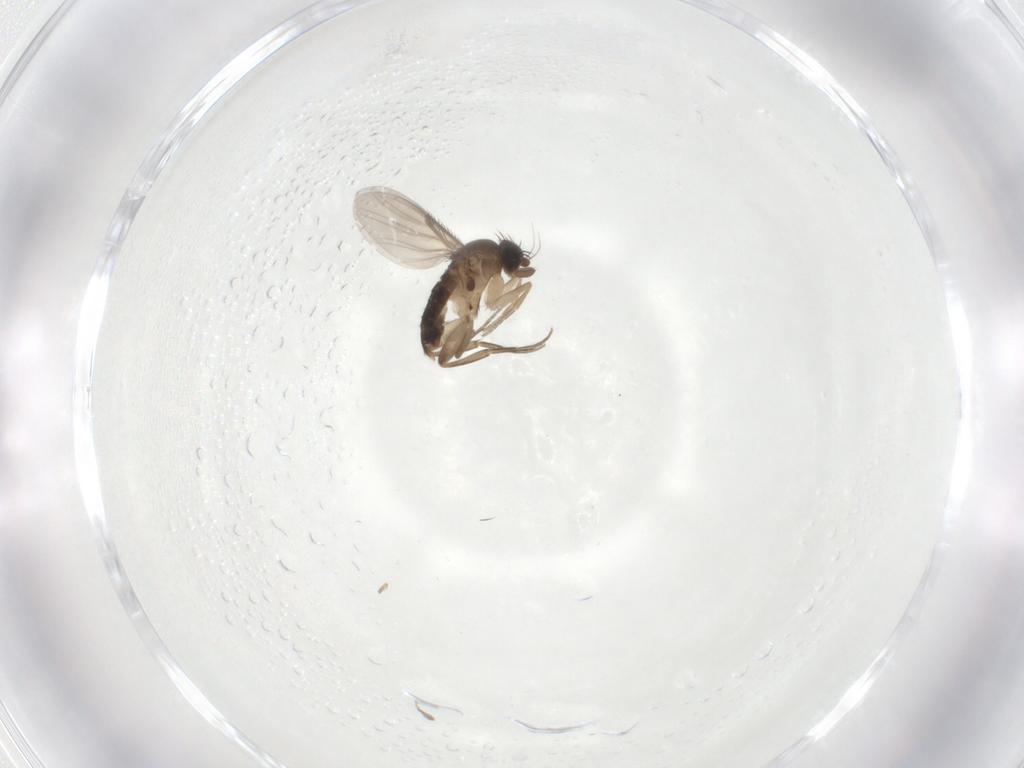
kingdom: Animalia
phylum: Arthropoda
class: Insecta
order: Diptera
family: Phoridae
